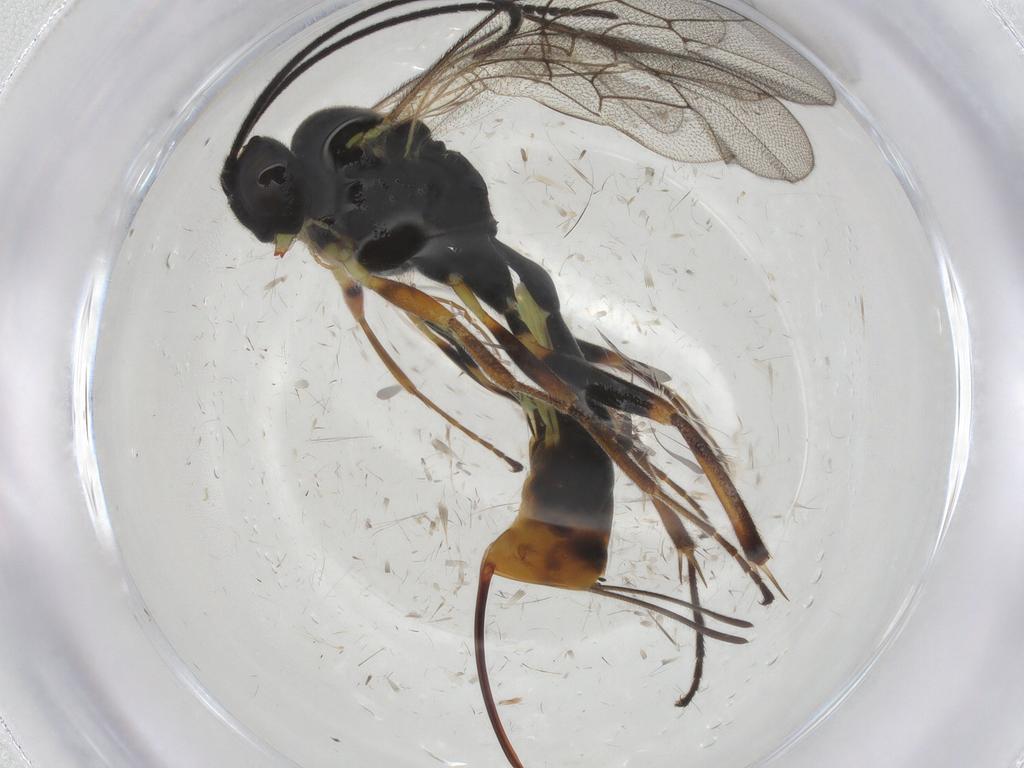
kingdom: Animalia
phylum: Arthropoda
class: Insecta
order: Hymenoptera
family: Ichneumonidae
